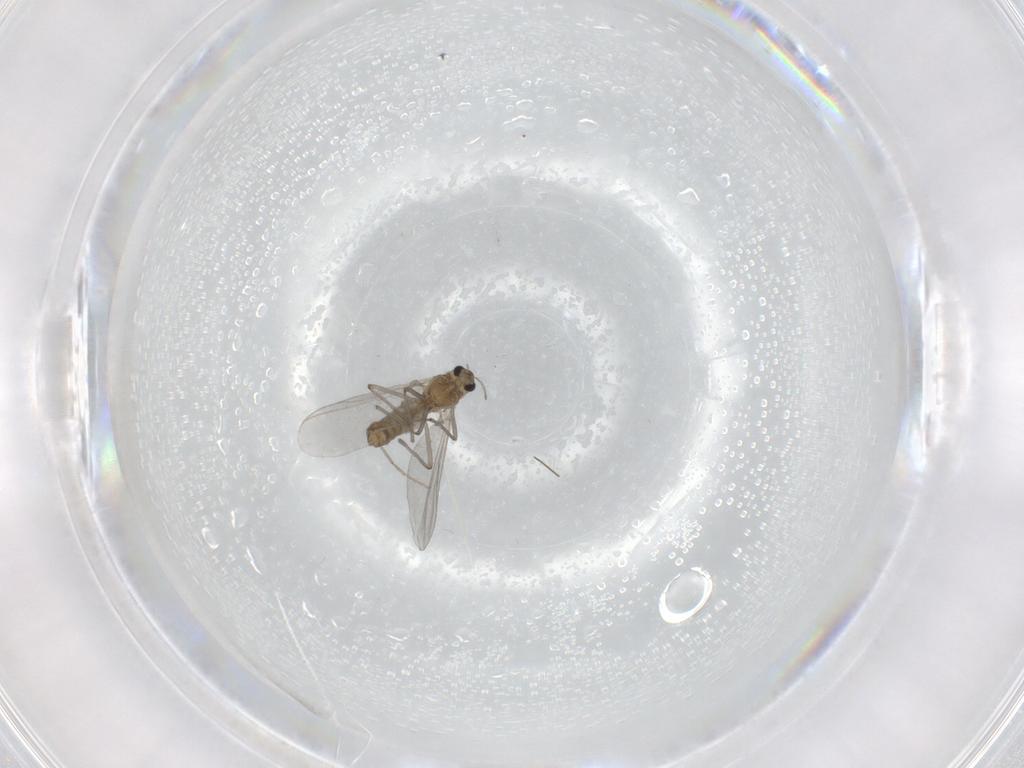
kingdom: Animalia
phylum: Arthropoda
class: Insecta
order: Diptera
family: Chironomidae
